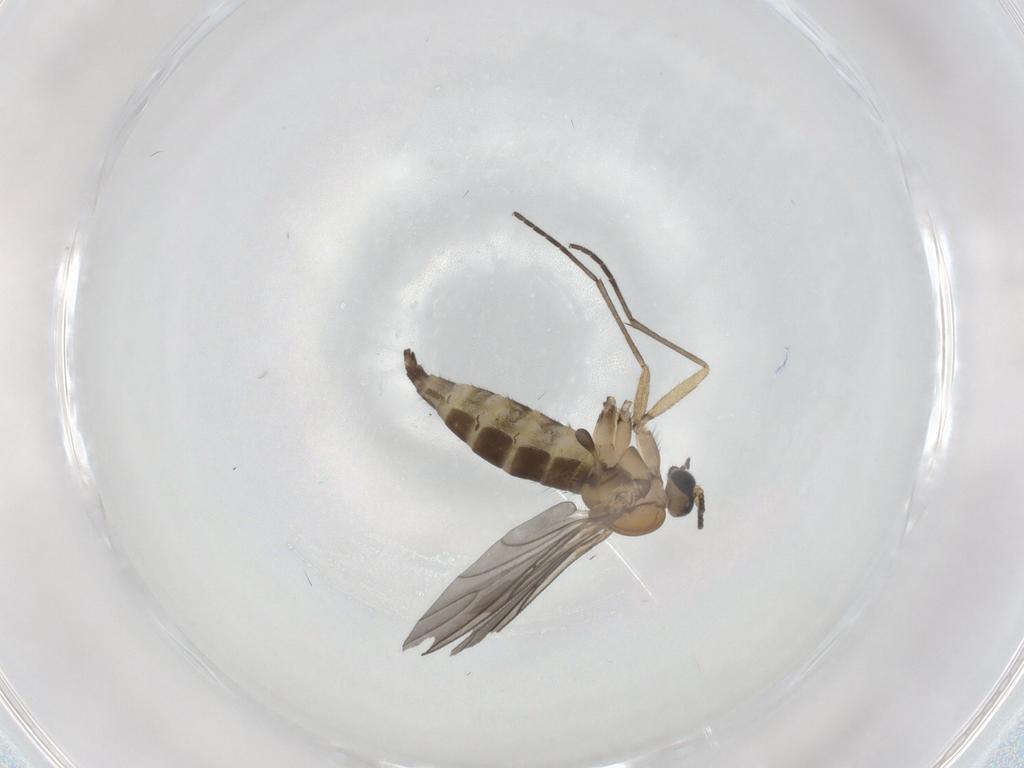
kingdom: Animalia
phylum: Arthropoda
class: Insecta
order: Diptera
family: Sciaridae
